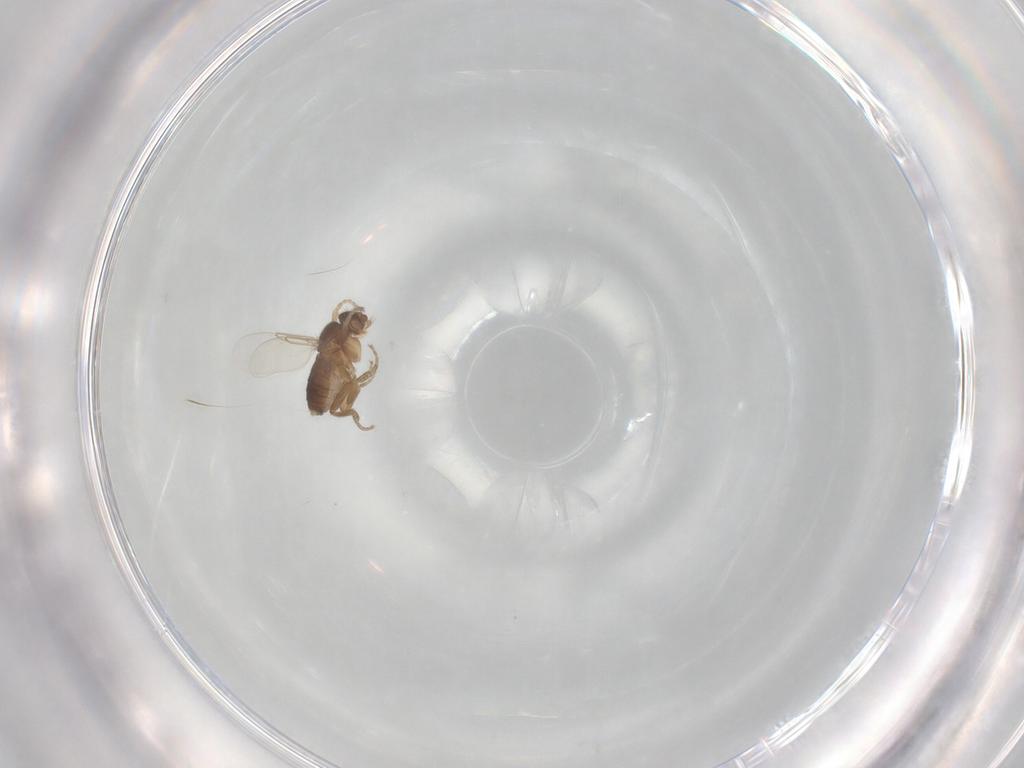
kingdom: Animalia
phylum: Arthropoda
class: Insecta
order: Diptera
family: Phoridae
